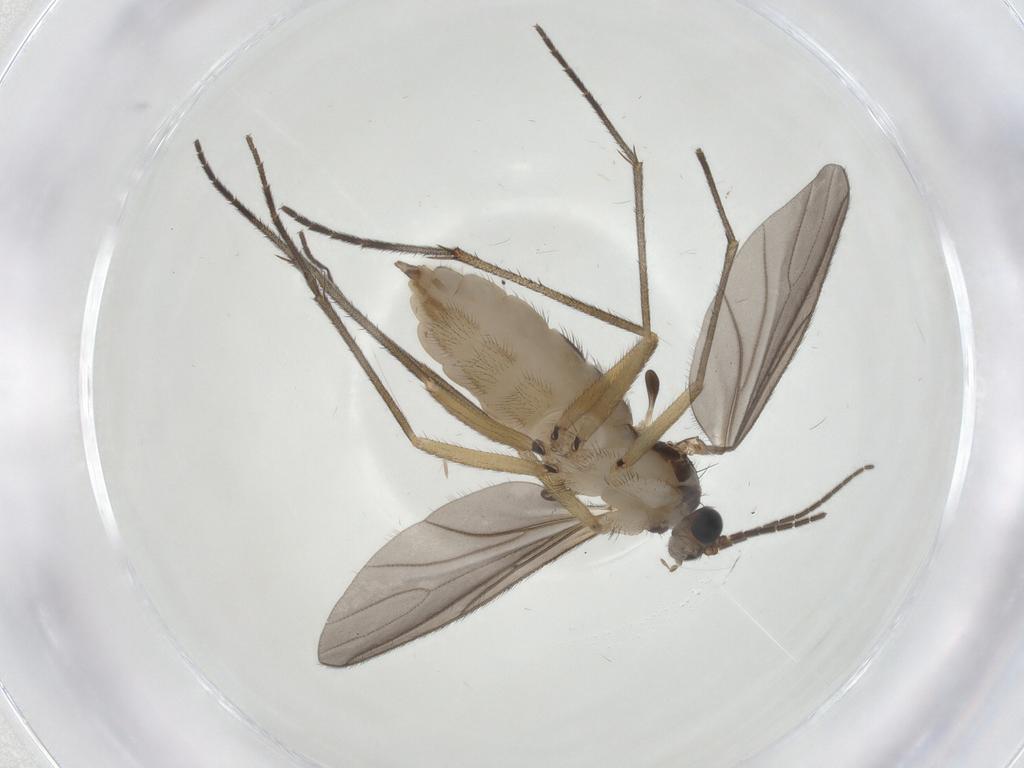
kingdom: Animalia
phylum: Arthropoda
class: Insecta
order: Diptera
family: Sciaridae
